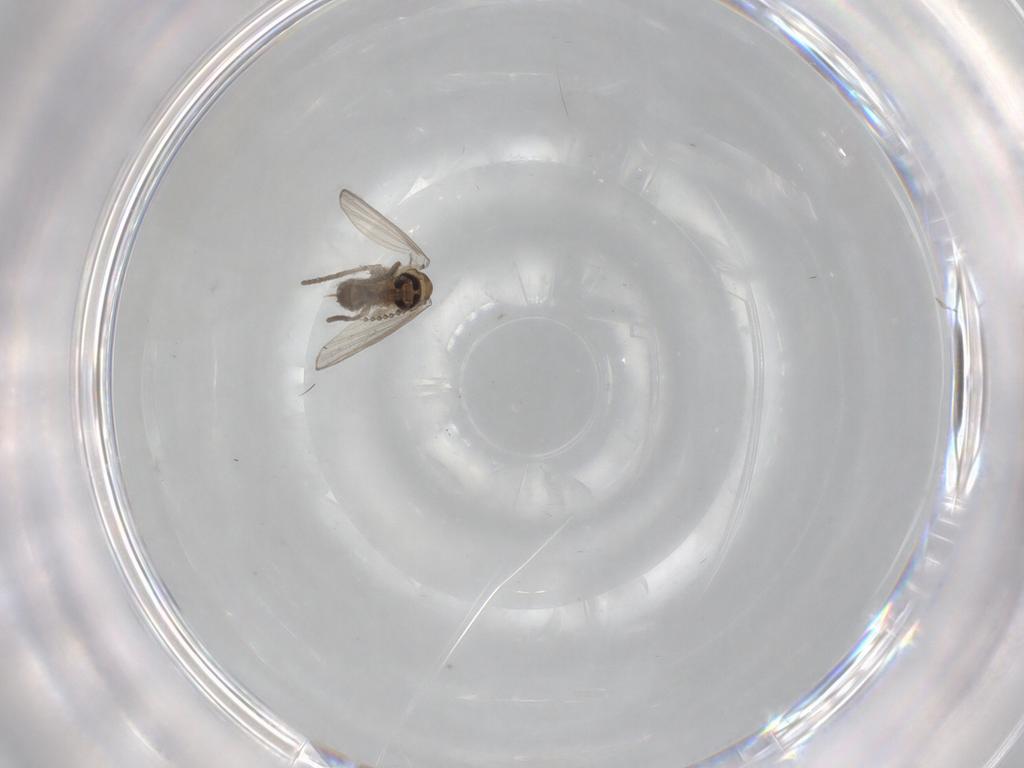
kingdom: Animalia
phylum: Arthropoda
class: Insecta
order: Diptera
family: Psychodidae
